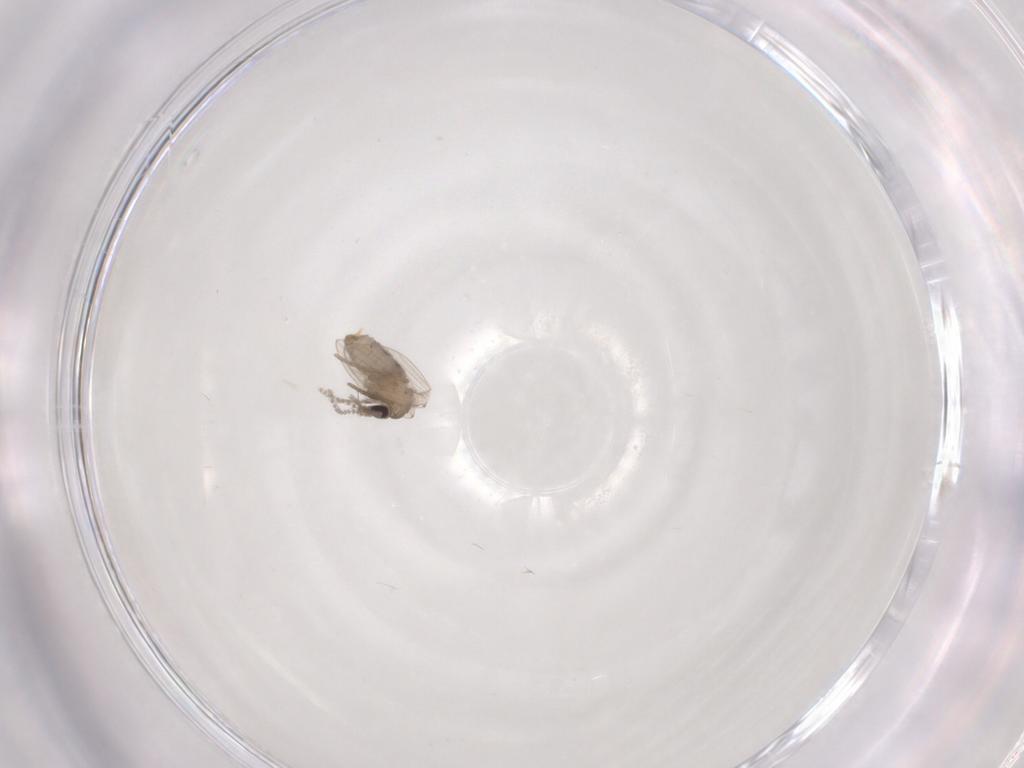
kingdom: Animalia
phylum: Arthropoda
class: Insecta
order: Diptera
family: Psychodidae
